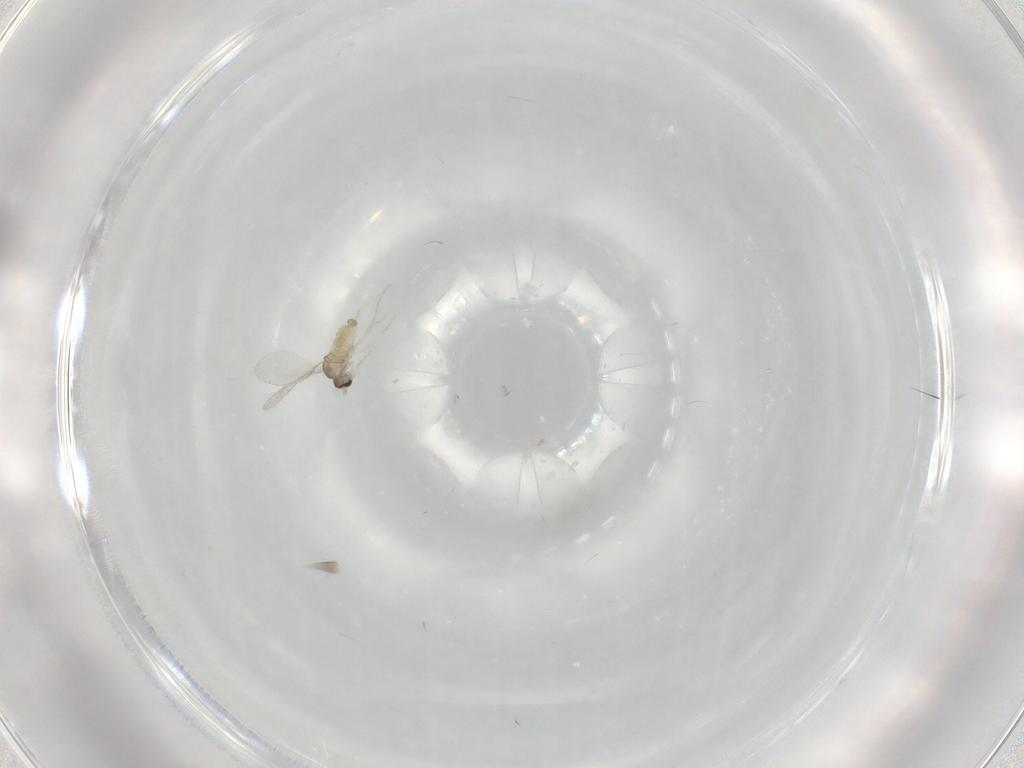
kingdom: Animalia
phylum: Arthropoda
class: Insecta
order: Diptera
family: Cecidomyiidae
